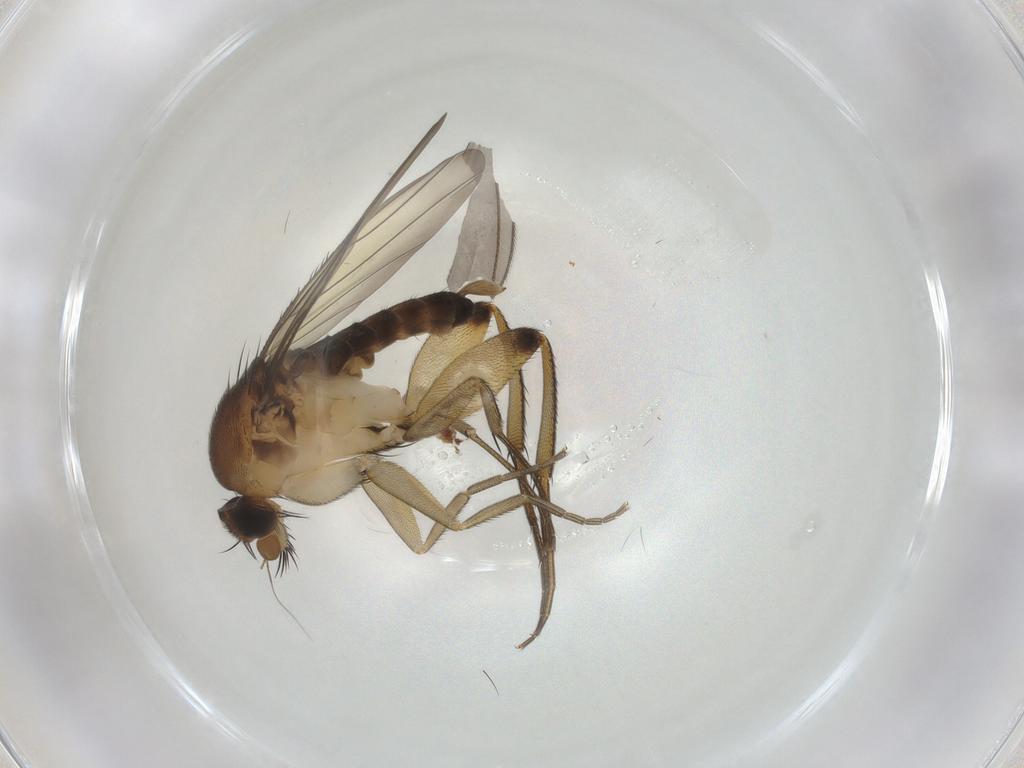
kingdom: Animalia
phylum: Arthropoda
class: Insecta
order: Diptera
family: Phoridae
